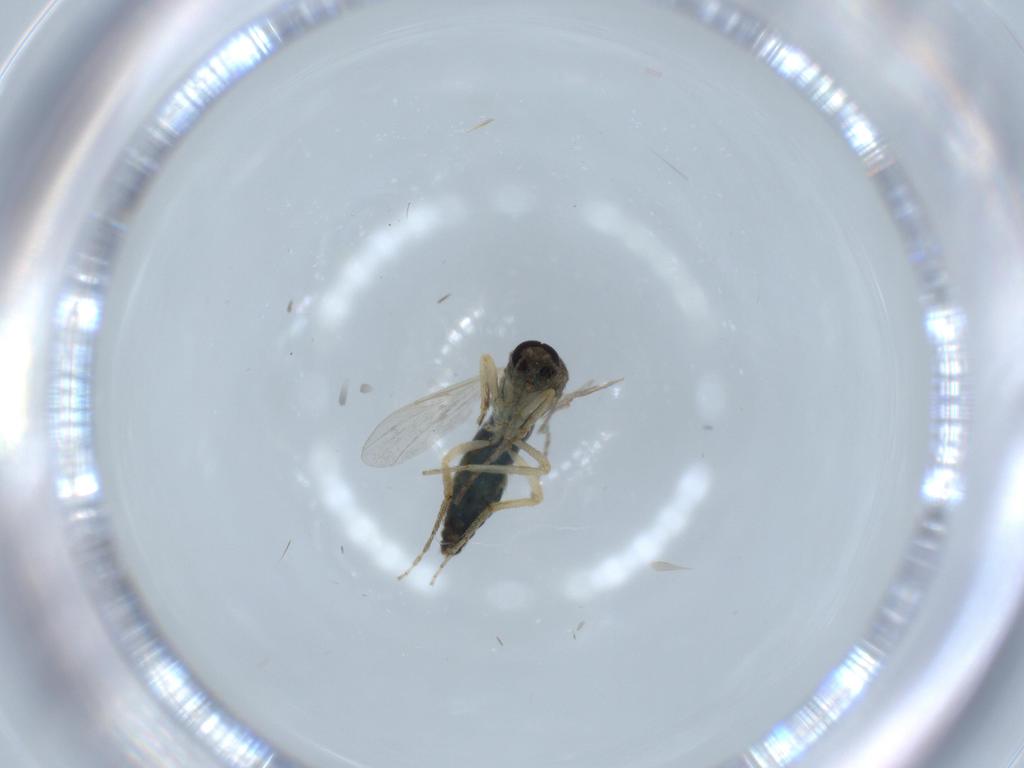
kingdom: Animalia
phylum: Arthropoda
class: Insecta
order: Diptera
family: Ceratopogonidae
